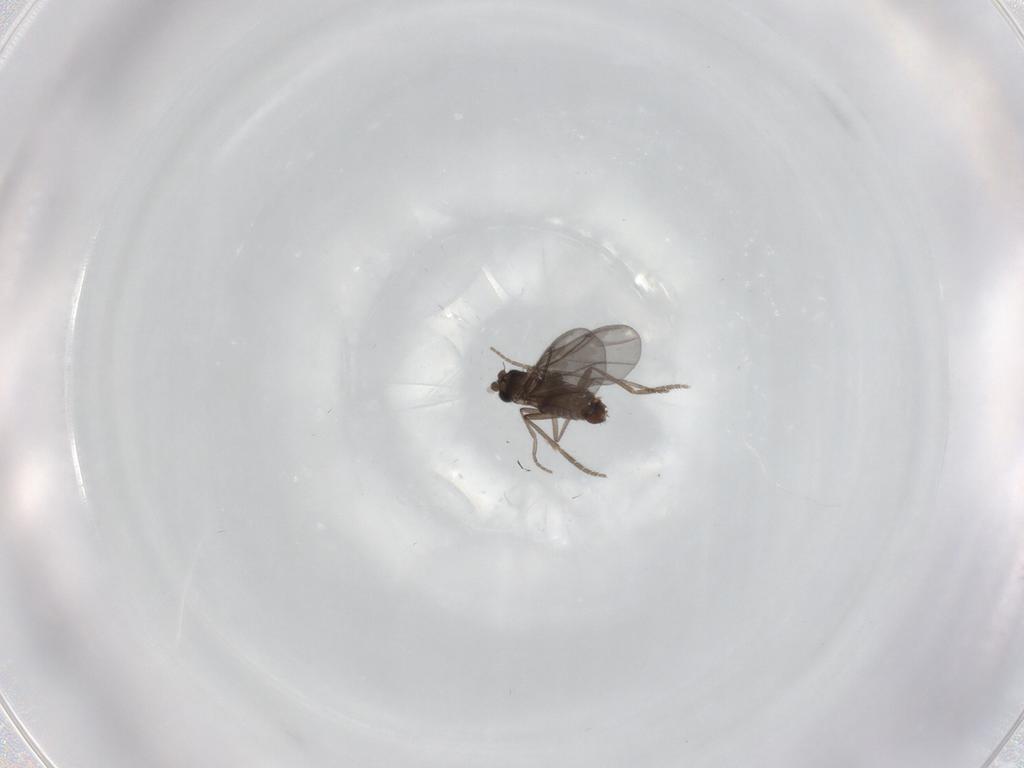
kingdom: Animalia
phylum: Arthropoda
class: Insecta
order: Diptera
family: Phoridae
